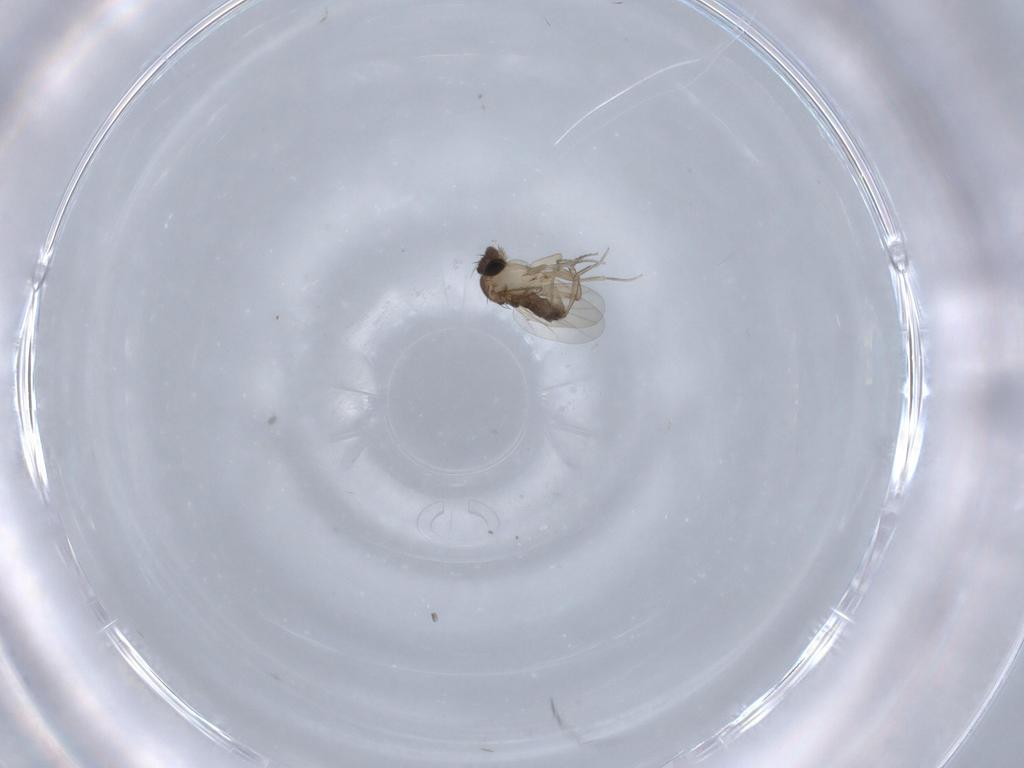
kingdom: Animalia
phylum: Arthropoda
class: Insecta
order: Diptera
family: Phoridae
